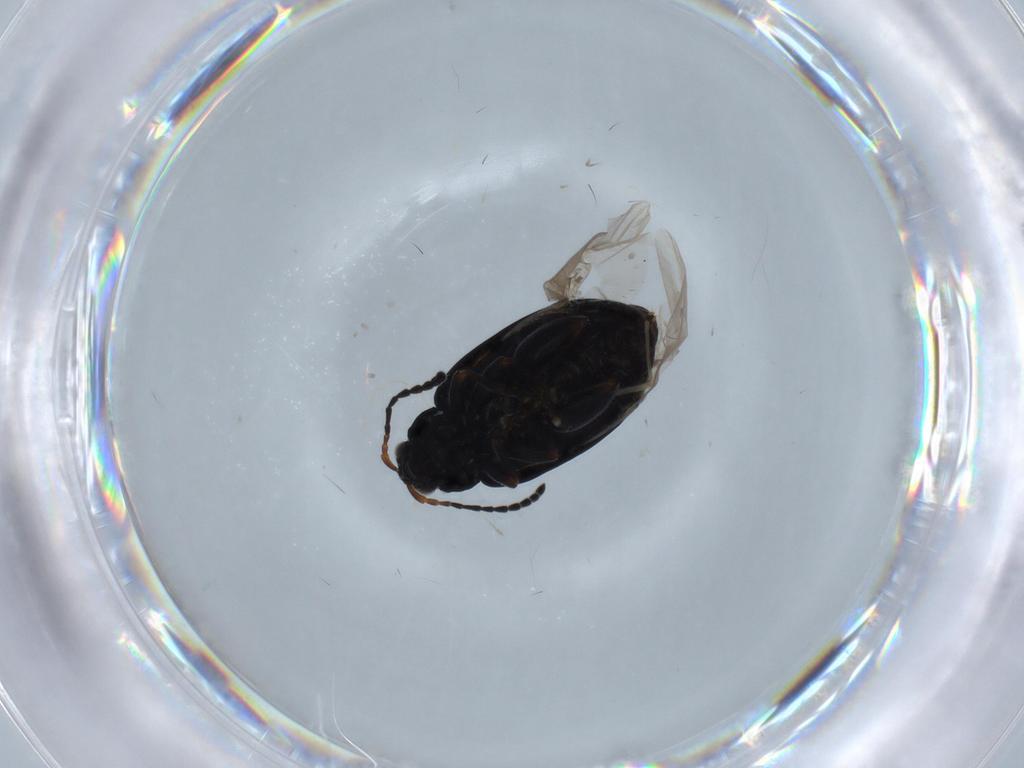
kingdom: Animalia
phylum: Arthropoda
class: Insecta
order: Coleoptera
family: Chrysomelidae
